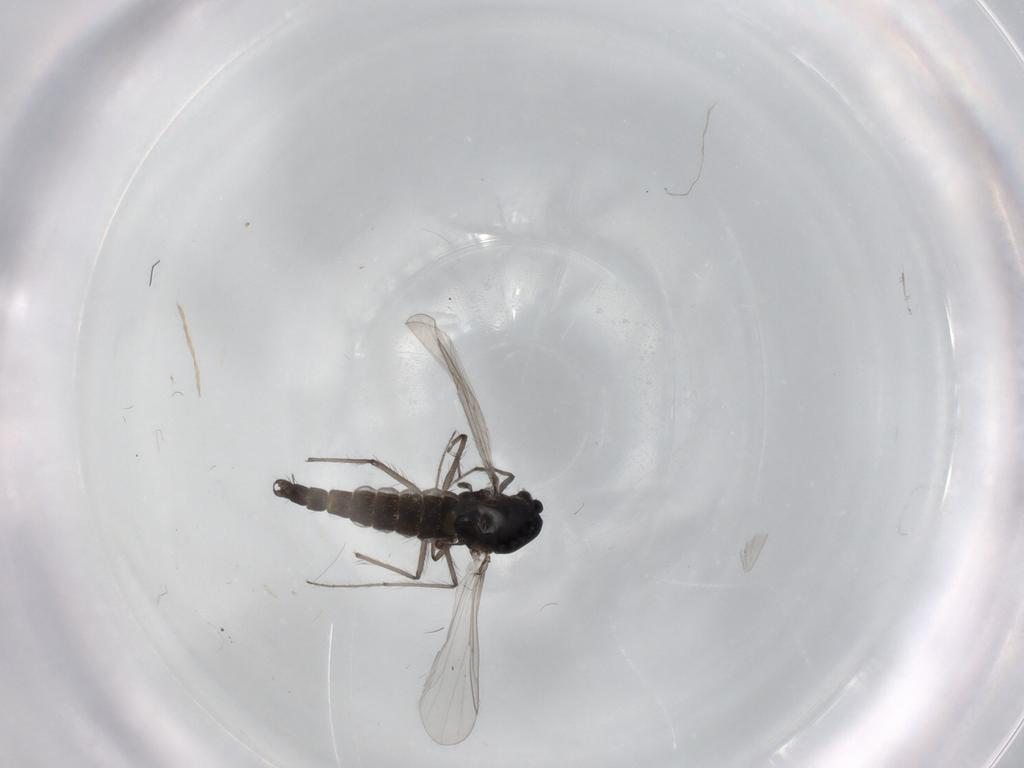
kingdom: Animalia
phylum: Arthropoda
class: Insecta
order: Diptera
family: Chironomidae
